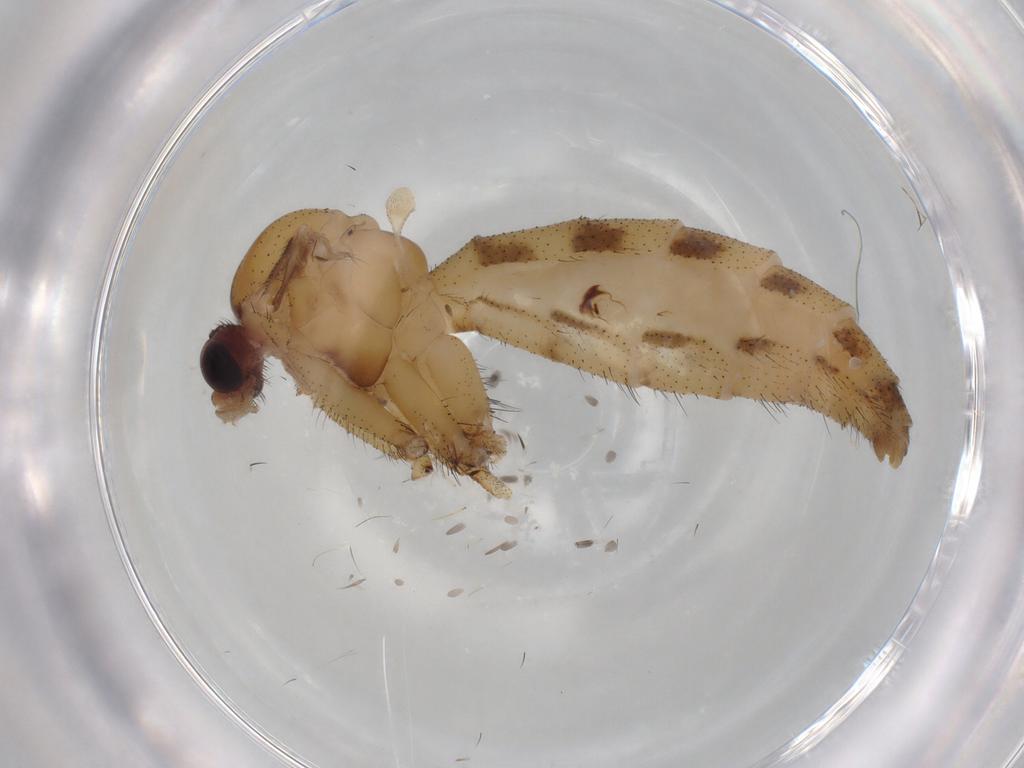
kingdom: Animalia
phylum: Arthropoda
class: Insecta
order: Diptera
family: Keroplatidae
